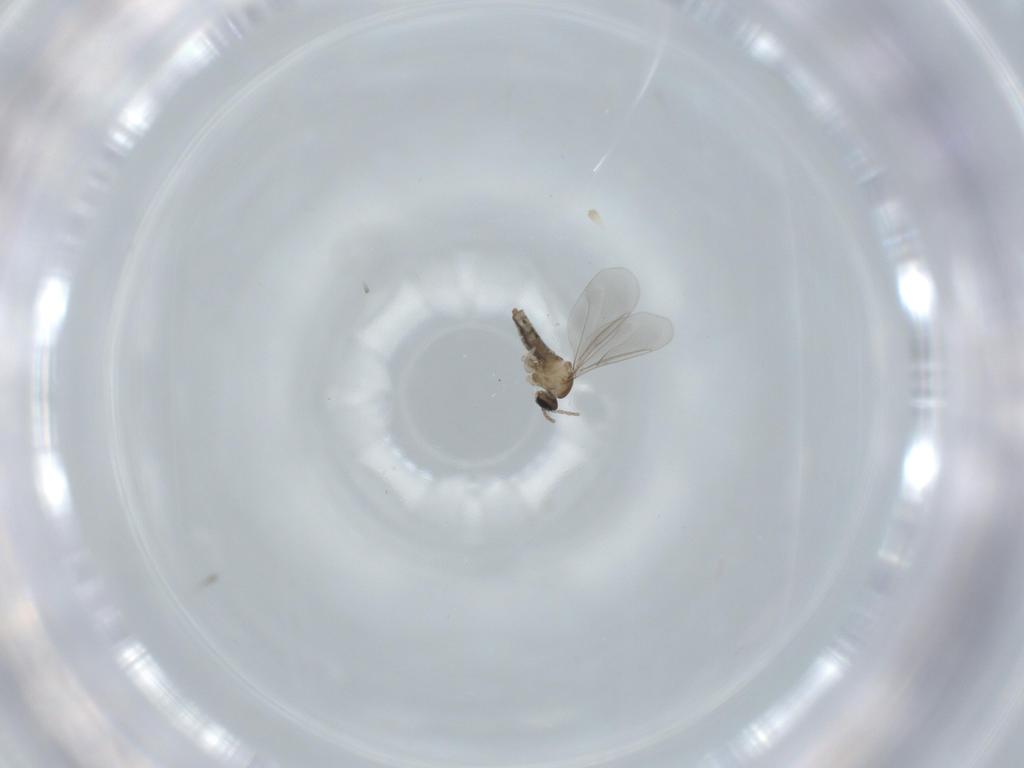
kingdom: Animalia
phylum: Arthropoda
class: Insecta
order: Diptera
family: Cecidomyiidae
